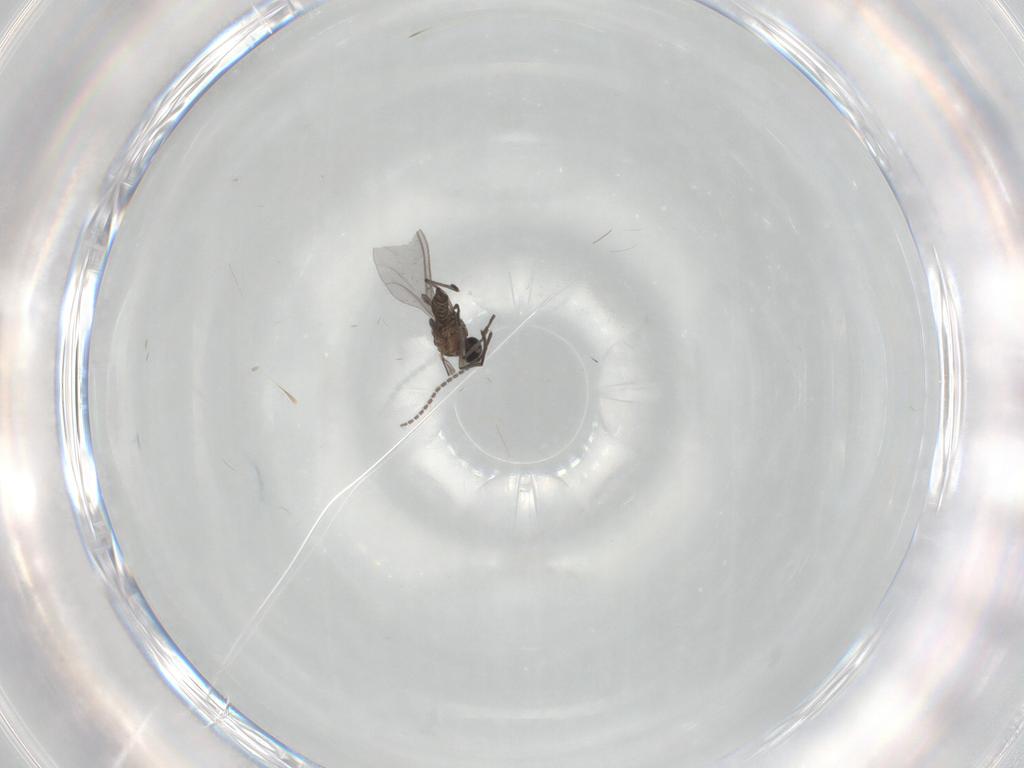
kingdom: Animalia
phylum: Arthropoda
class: Insecta
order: Diptera
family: Sciaridae
